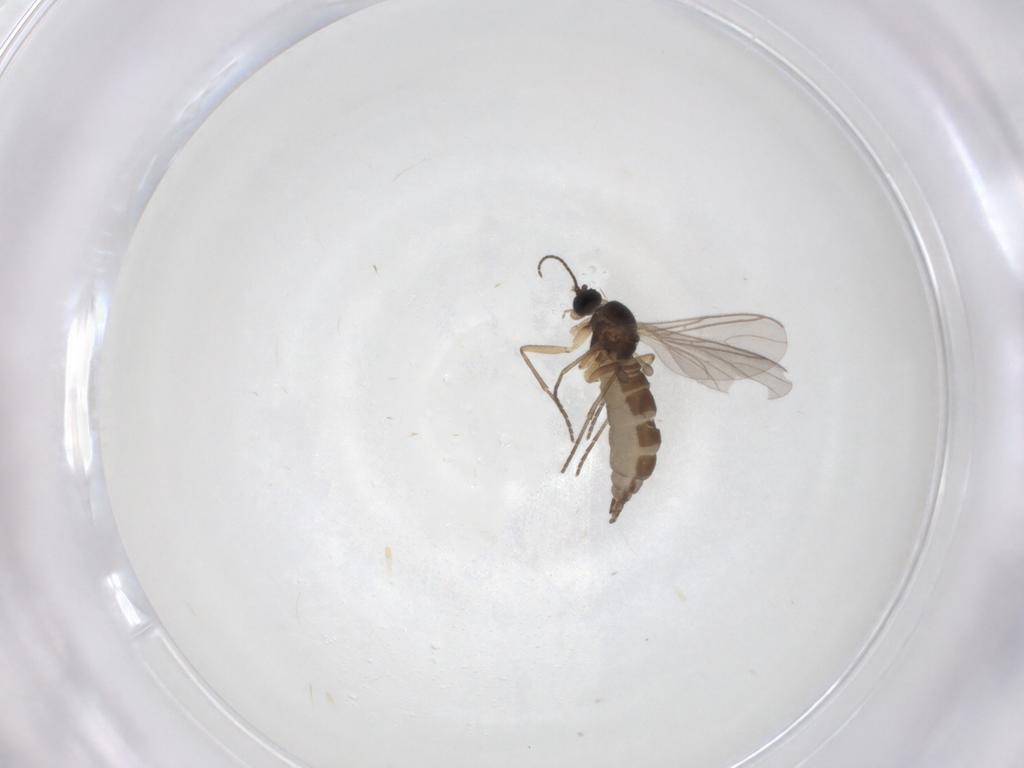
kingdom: Animalia
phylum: Arthropoda
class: Insecta
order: Diptera
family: Sciaridae
